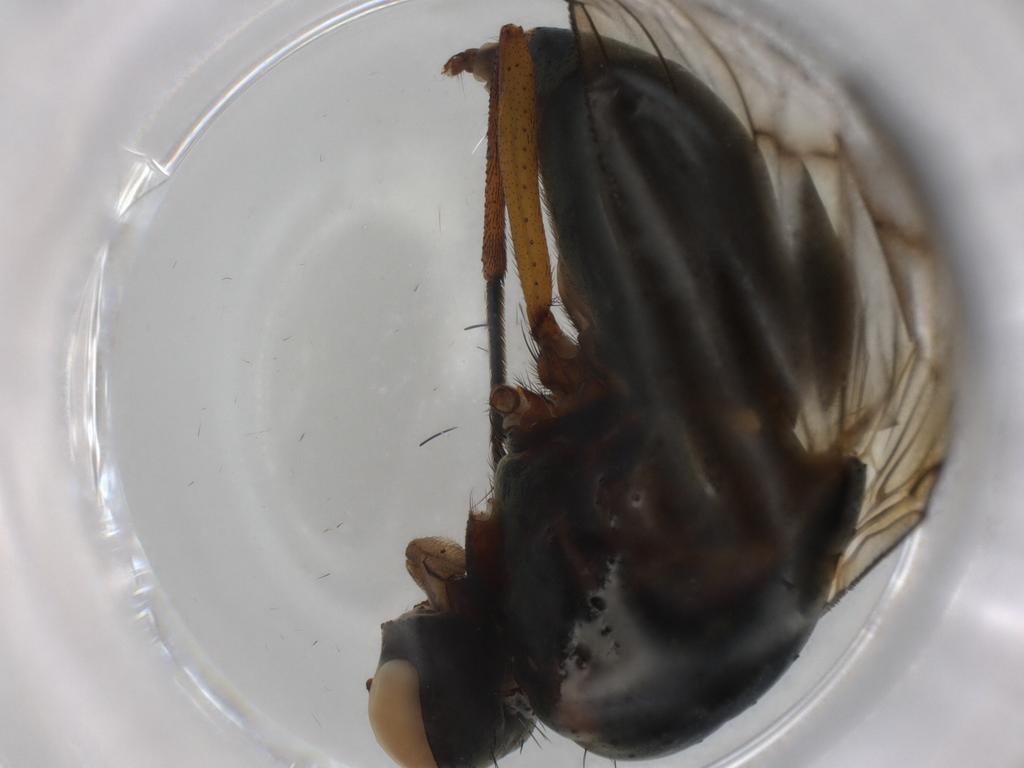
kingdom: Animalia
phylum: Arthropoda
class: Insecta
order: Diptera
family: Muscidae
